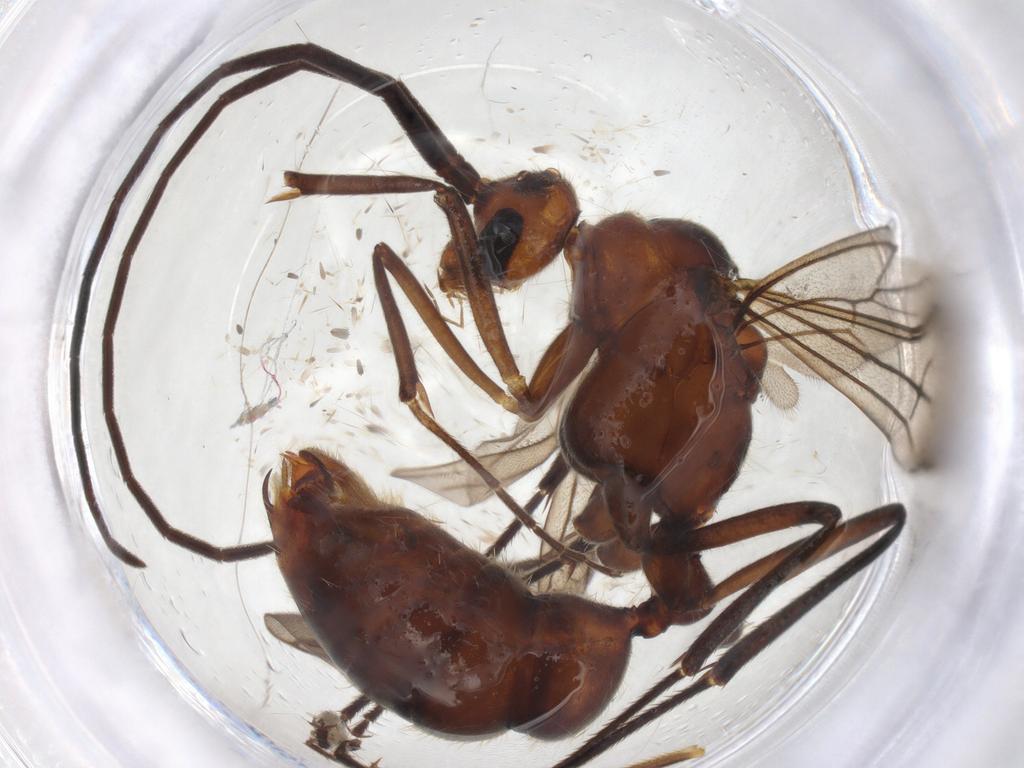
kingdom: Animalia
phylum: Arthropoda
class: Insecta
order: Hymenoptera
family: Formicidae
